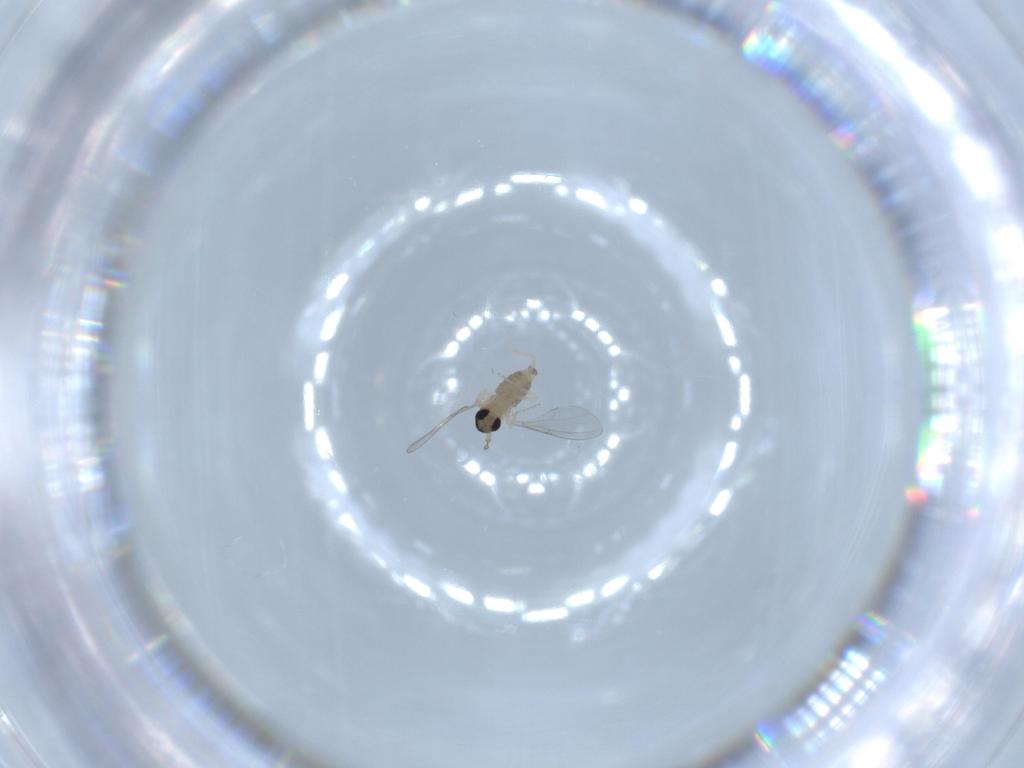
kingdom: Animalia
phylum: Arthropoda
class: Insecta
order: Diptera
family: Cecidomyiidae
